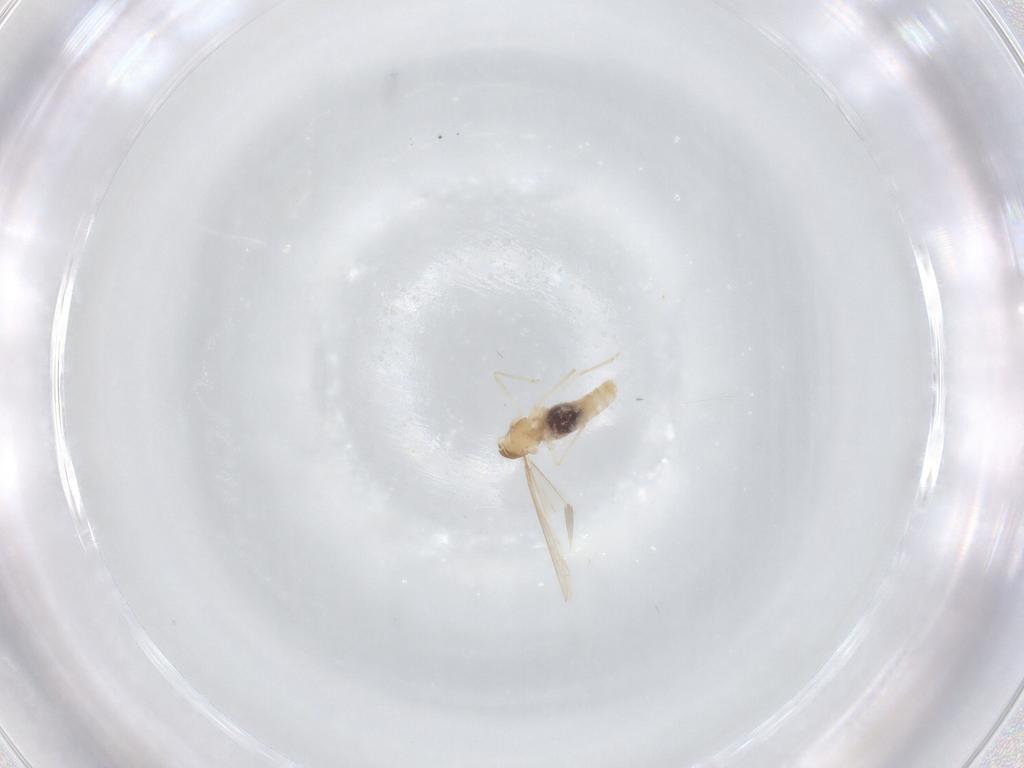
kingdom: Animalia
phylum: Arthropoda
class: Insecta
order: Diptera
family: Cecidomyiidae
